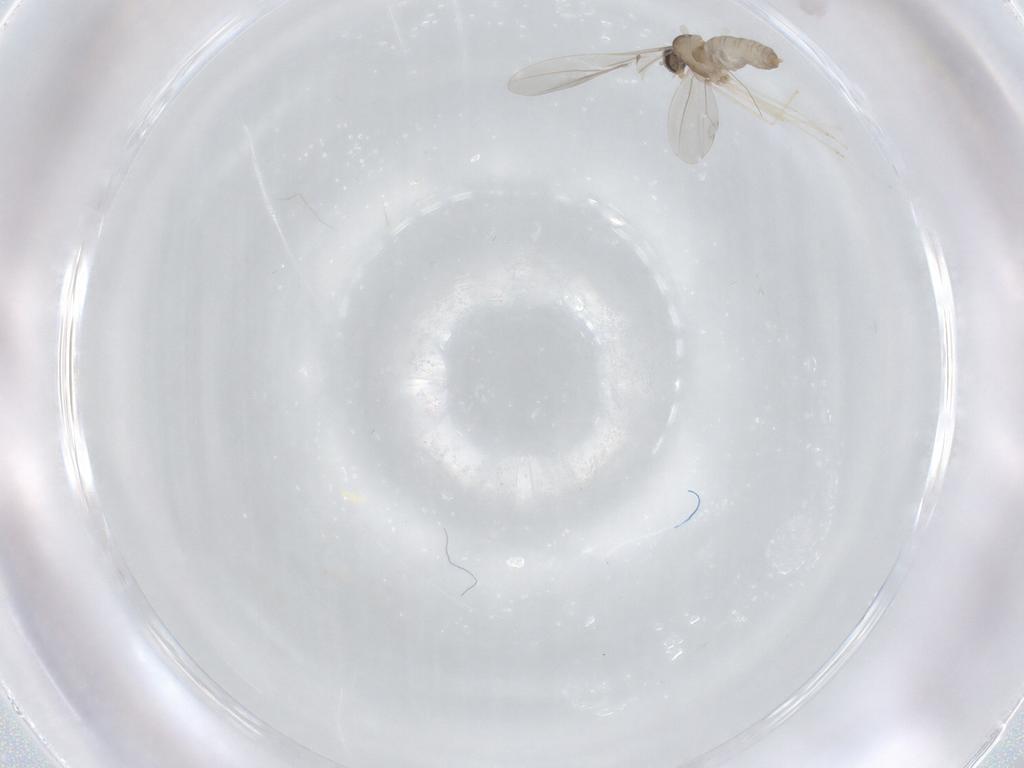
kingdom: Animalia
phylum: Arthropoda
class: Insecta
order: Diptera
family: Cecidomyiidae
